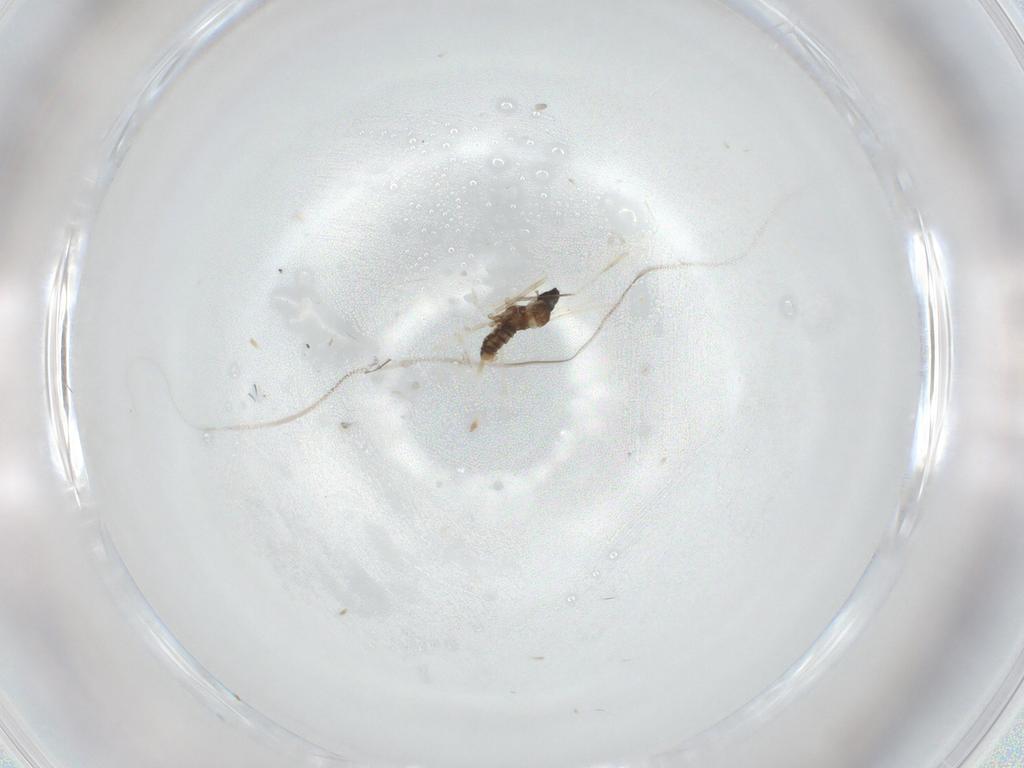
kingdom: Animalia
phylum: Arthropoda
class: Insecta
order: Diptera
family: Cecidomyiidae
